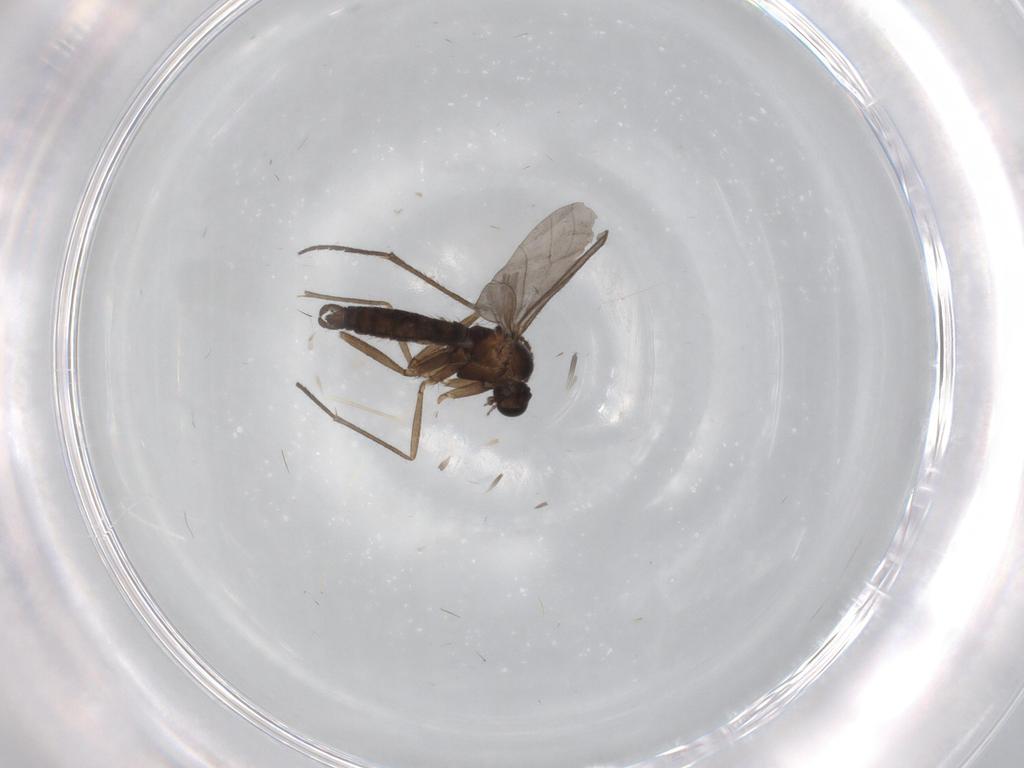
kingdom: Animalia
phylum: Arthropoda
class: Insecta
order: Diptera
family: Sciaridae
